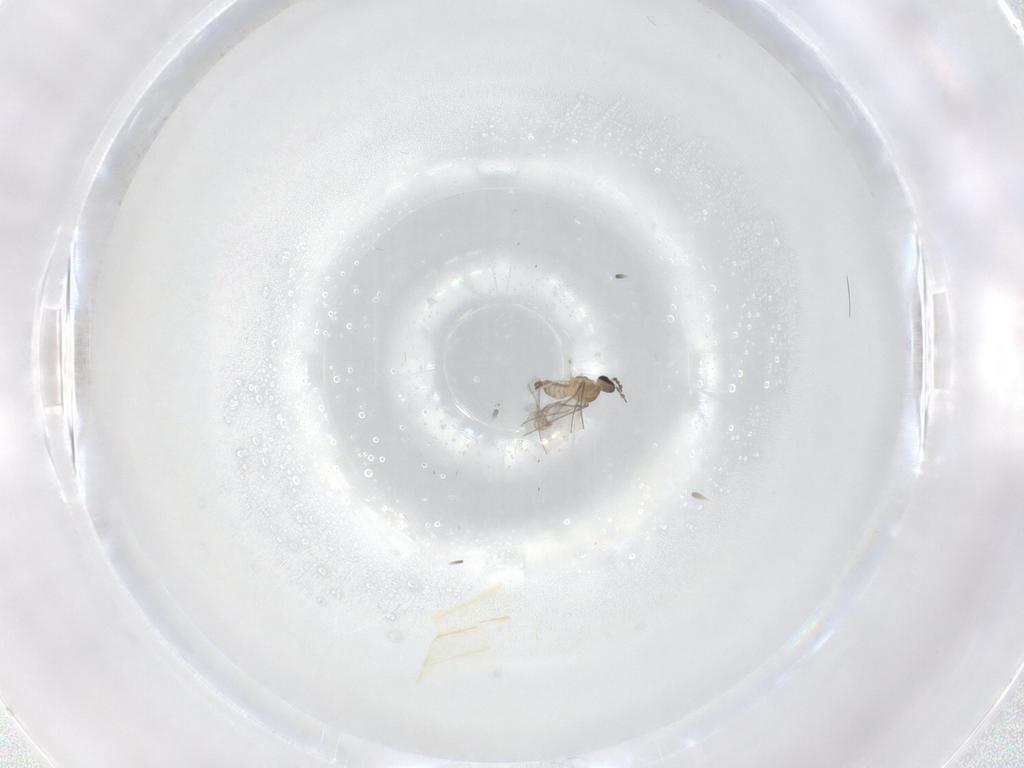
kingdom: Animalia
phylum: Arthropoda
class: Insecta
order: Diptera
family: Cecidomyiidae
